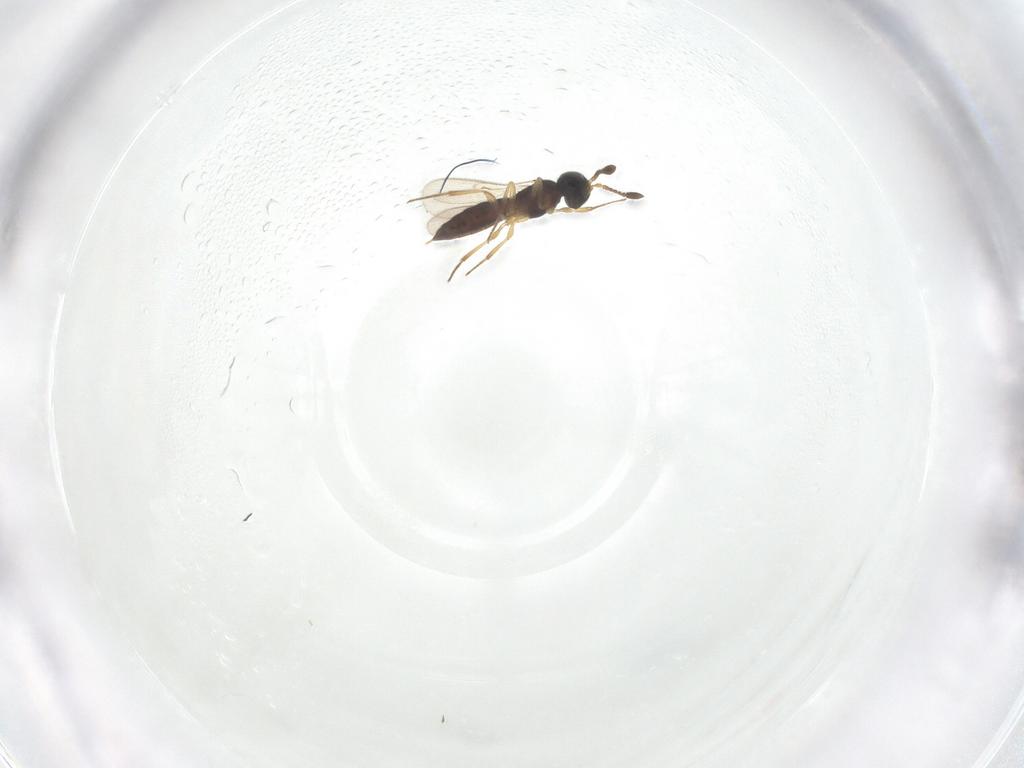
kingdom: Animalia
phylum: Arthropoda
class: Insecta
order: Hymenoptera
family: Scelionidae
